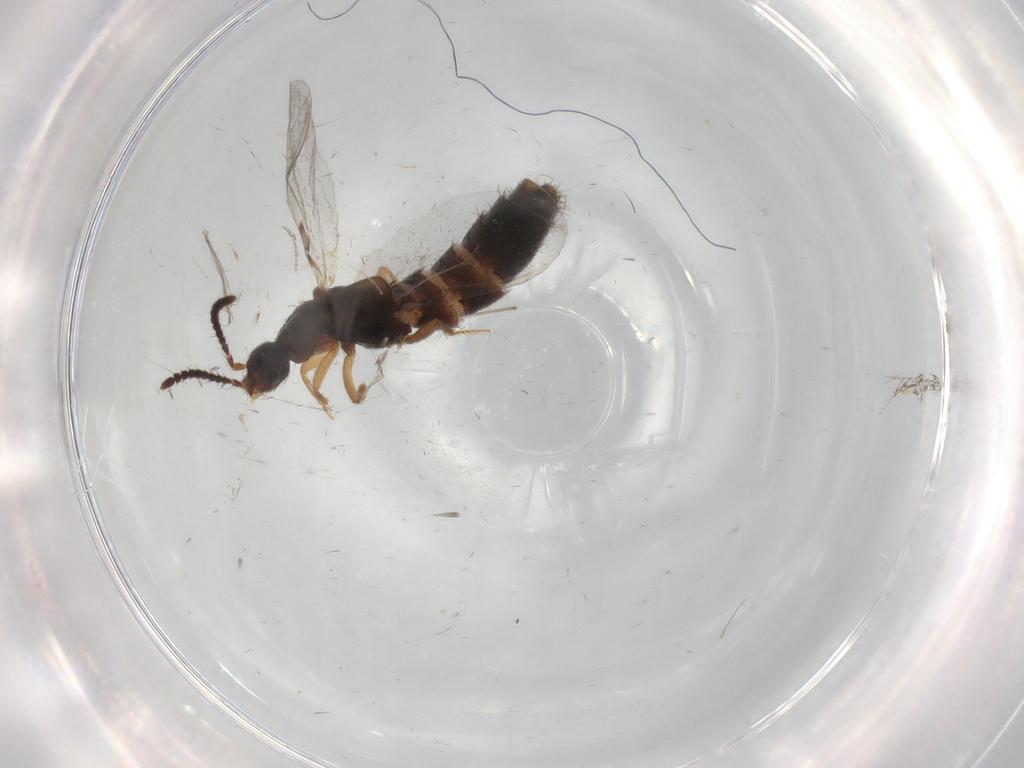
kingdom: Animalia
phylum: Arthropoda
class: Insecta
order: Coleoptera
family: Staphylinidae
